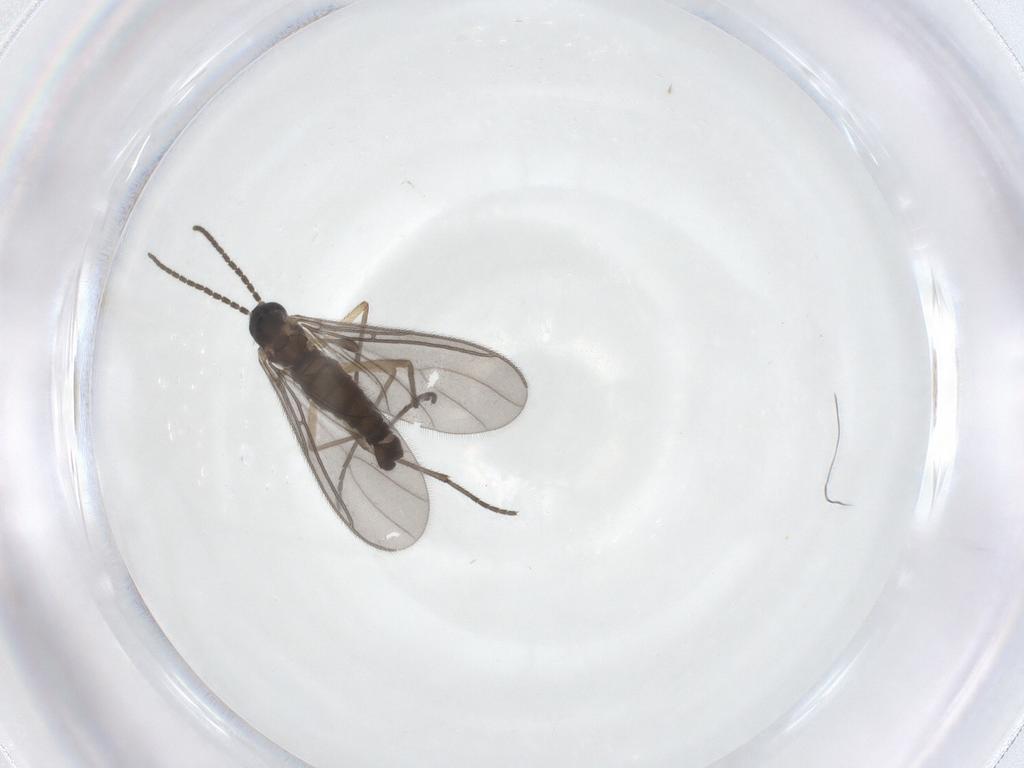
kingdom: Animalia
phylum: Arthropoda
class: Insecta
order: Diptera
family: Sciaridae
